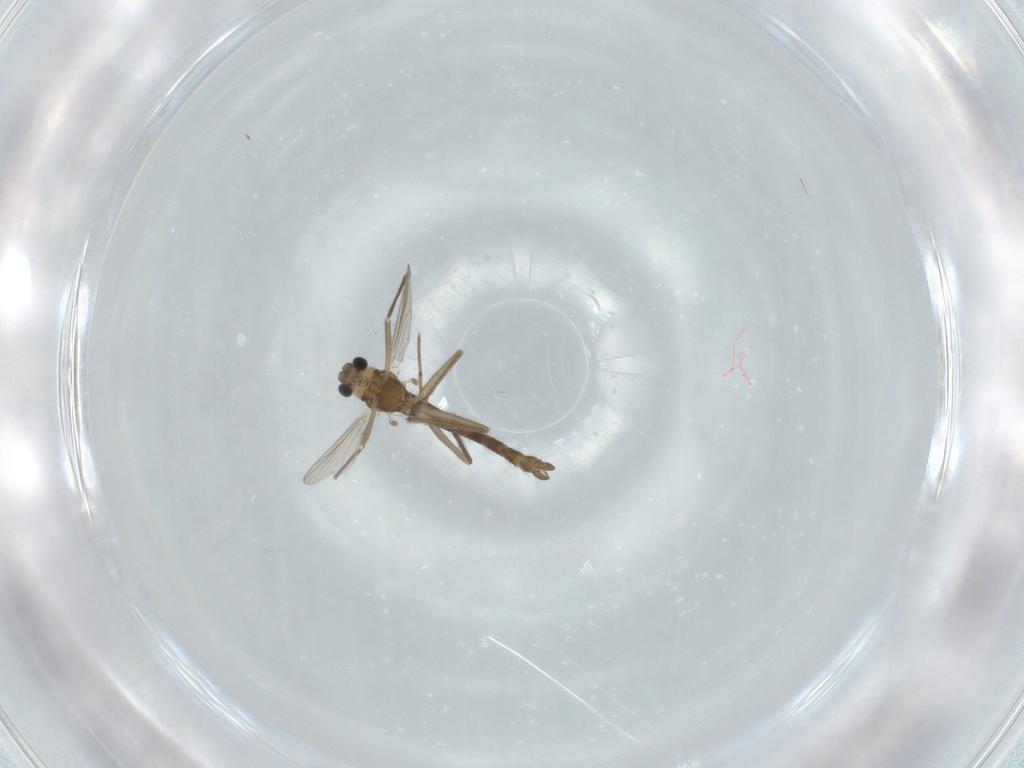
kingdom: Animalia
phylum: Arthropoda
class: Insecta
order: Diptera
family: Chironomidae
